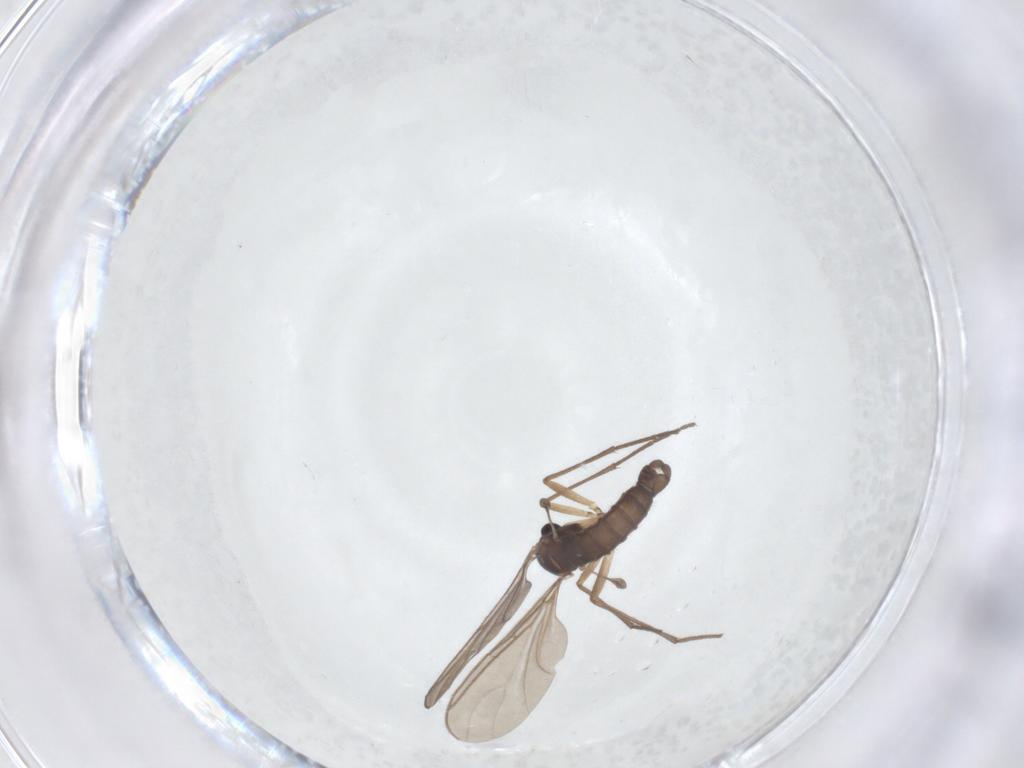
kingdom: Animalia
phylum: Arthropoda
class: Insecta
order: Diptera
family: Sciaridae
